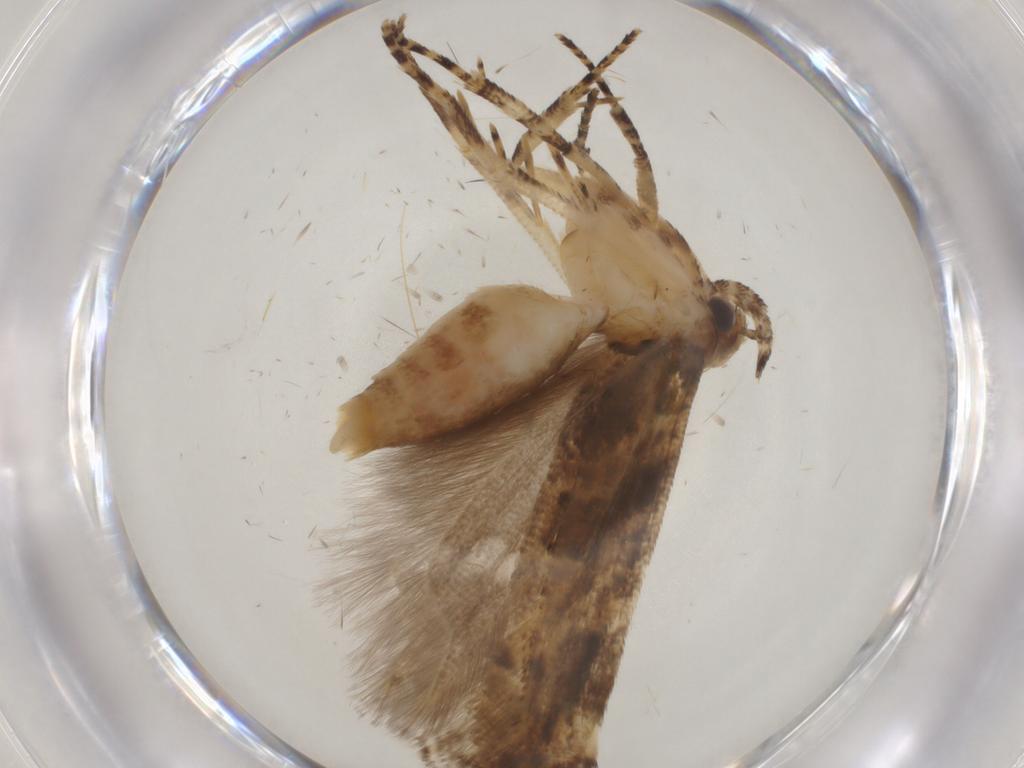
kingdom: Animalia
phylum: Arthropoda
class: Insecta
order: Lepidoptera
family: Gelechiidae
